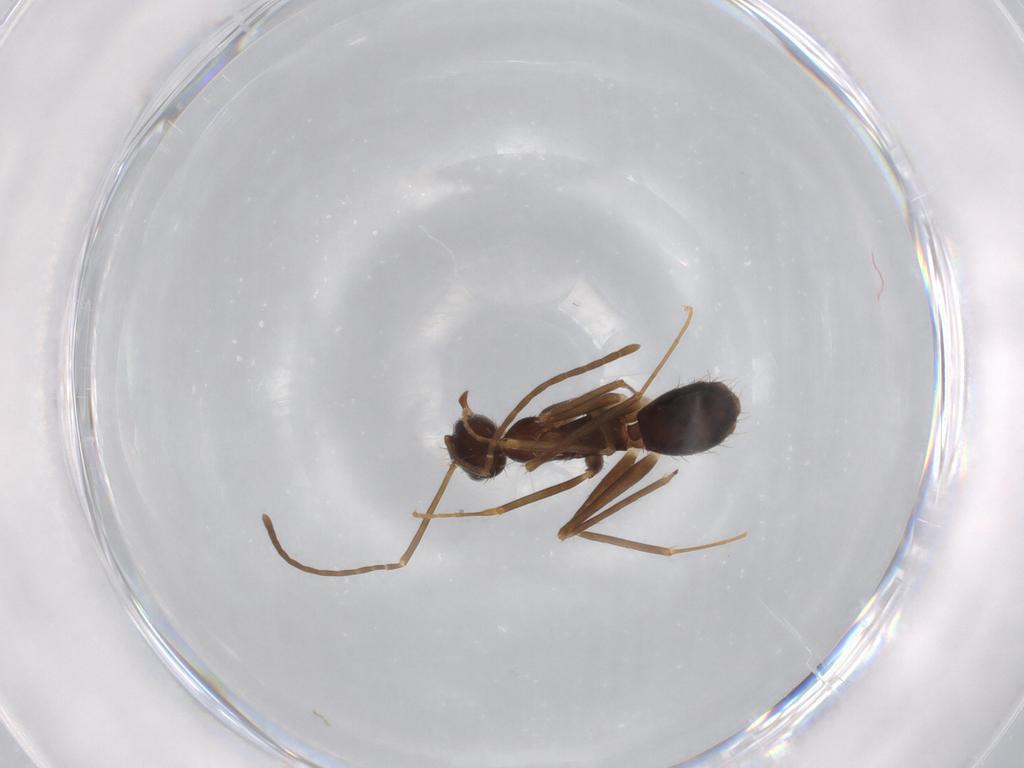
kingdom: Animalia
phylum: Arthropoda
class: Insecta
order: Hymenoptera
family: Formicidae
